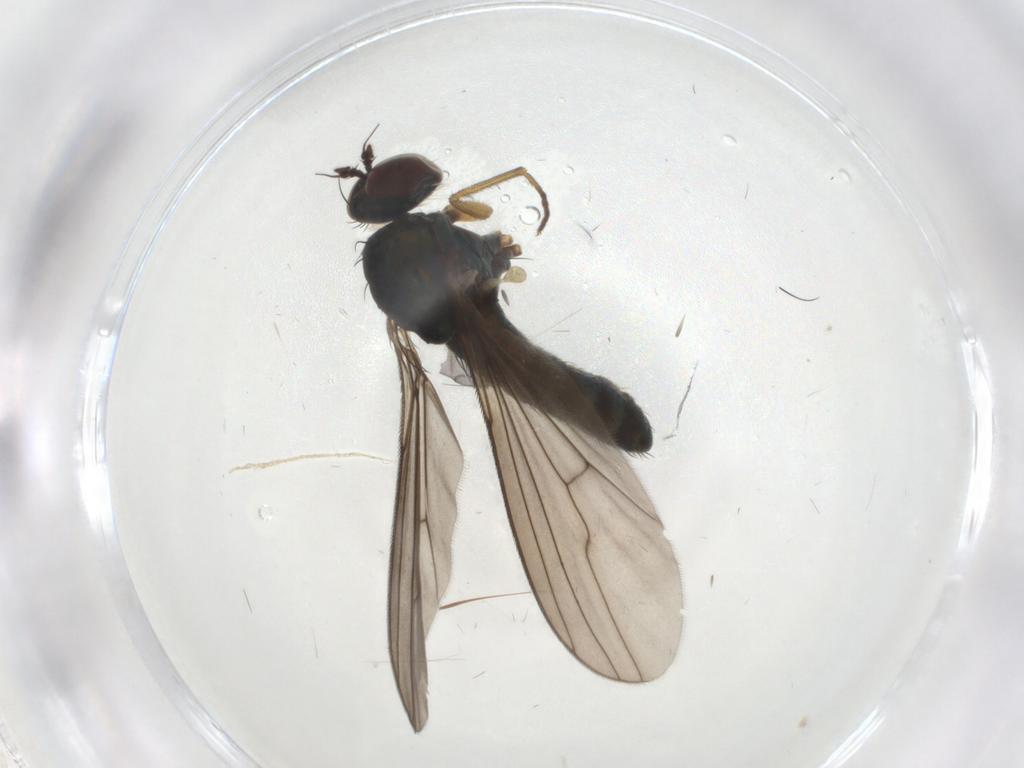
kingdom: Animalia
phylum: Arthropoda
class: Insecta
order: Diptera
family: Dolichopodidae
